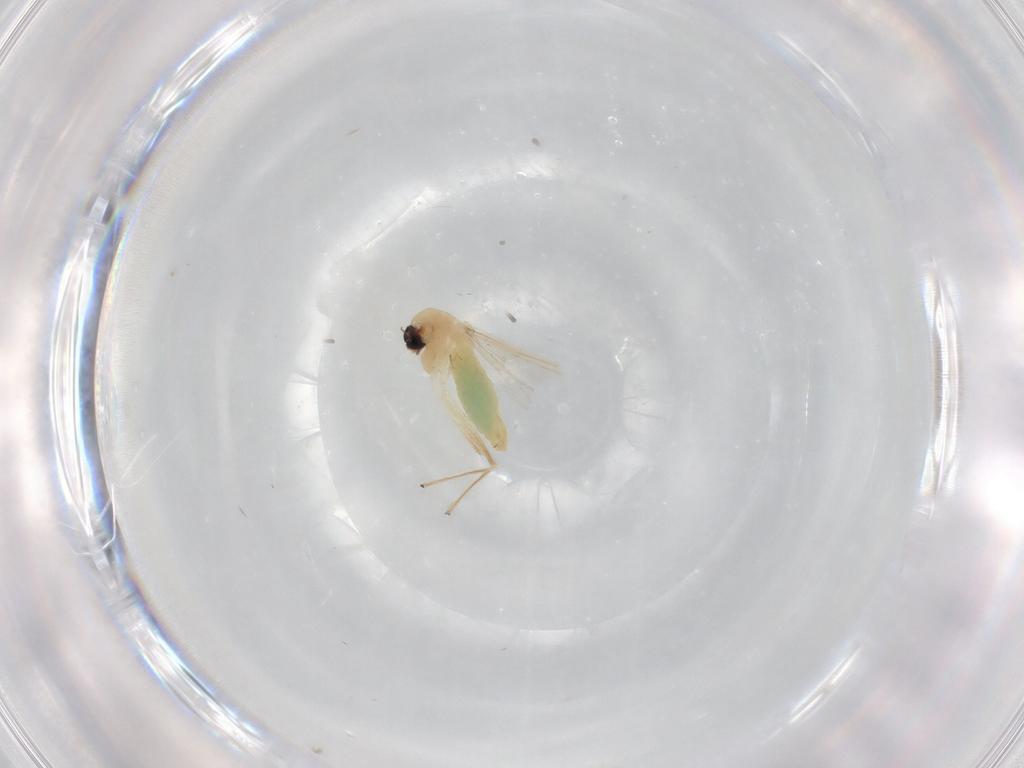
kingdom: Animalia
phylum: Arthropoda
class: Insecta
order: Diptera
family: Chironomidae
